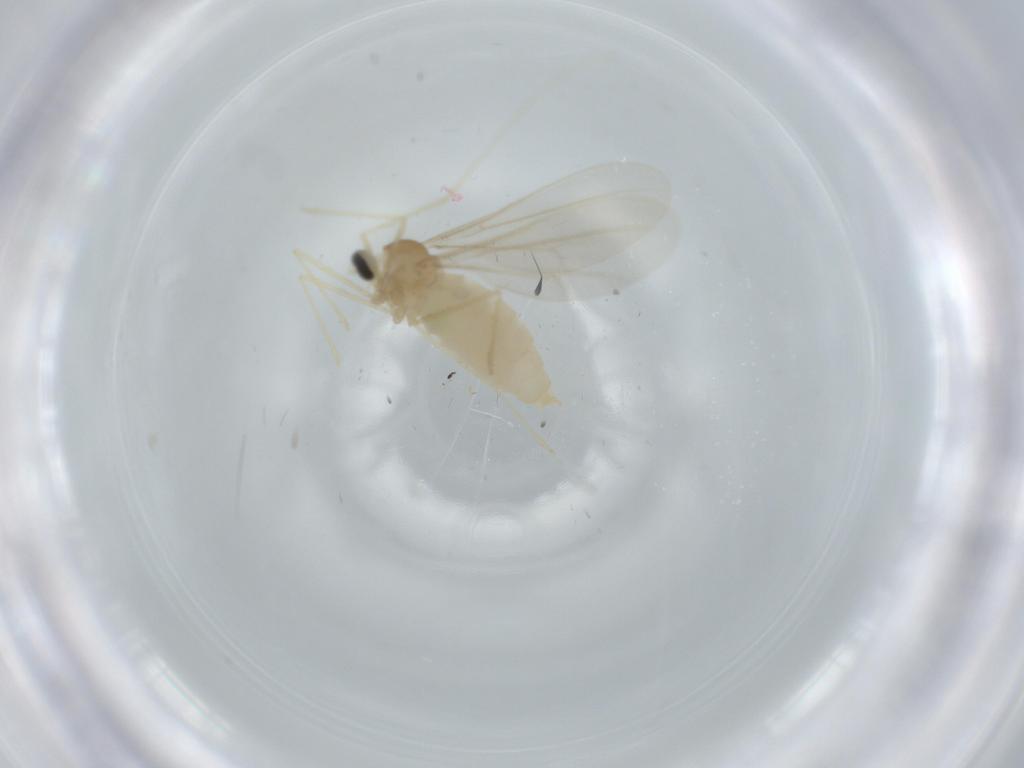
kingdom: Animalia
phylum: Arthropoda
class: Insecta
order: Diptera
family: Cecidomyiidae
